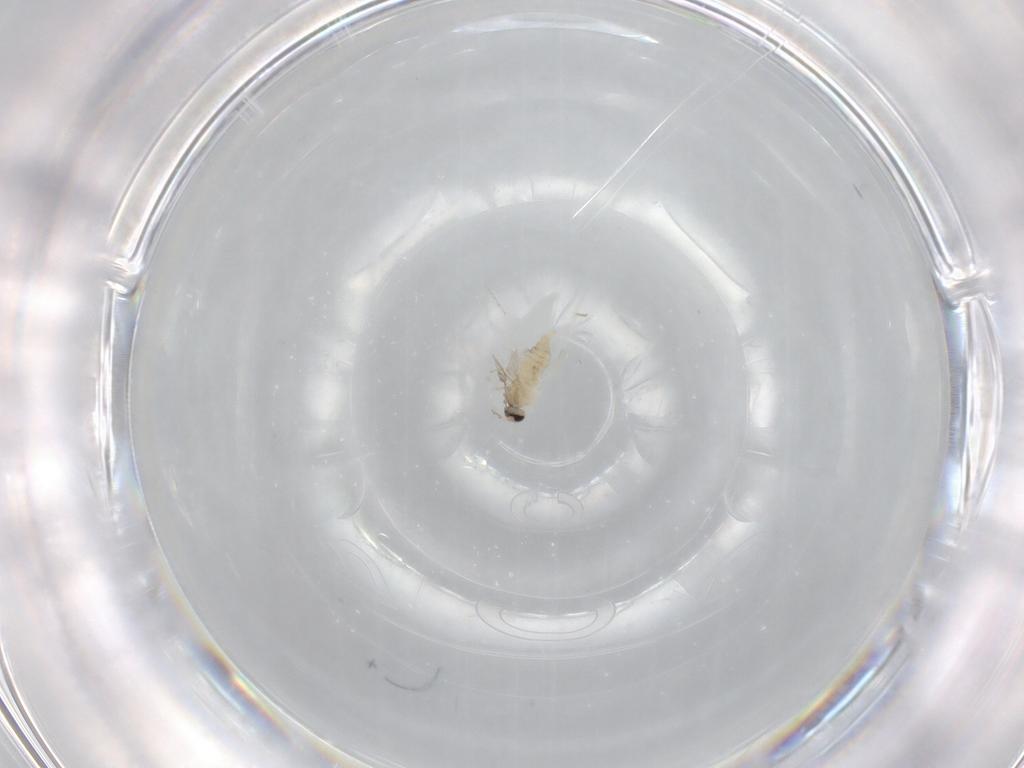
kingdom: Animalia
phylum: Arthropoda
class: Insecta
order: Diptera
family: Cecidomyiidae
